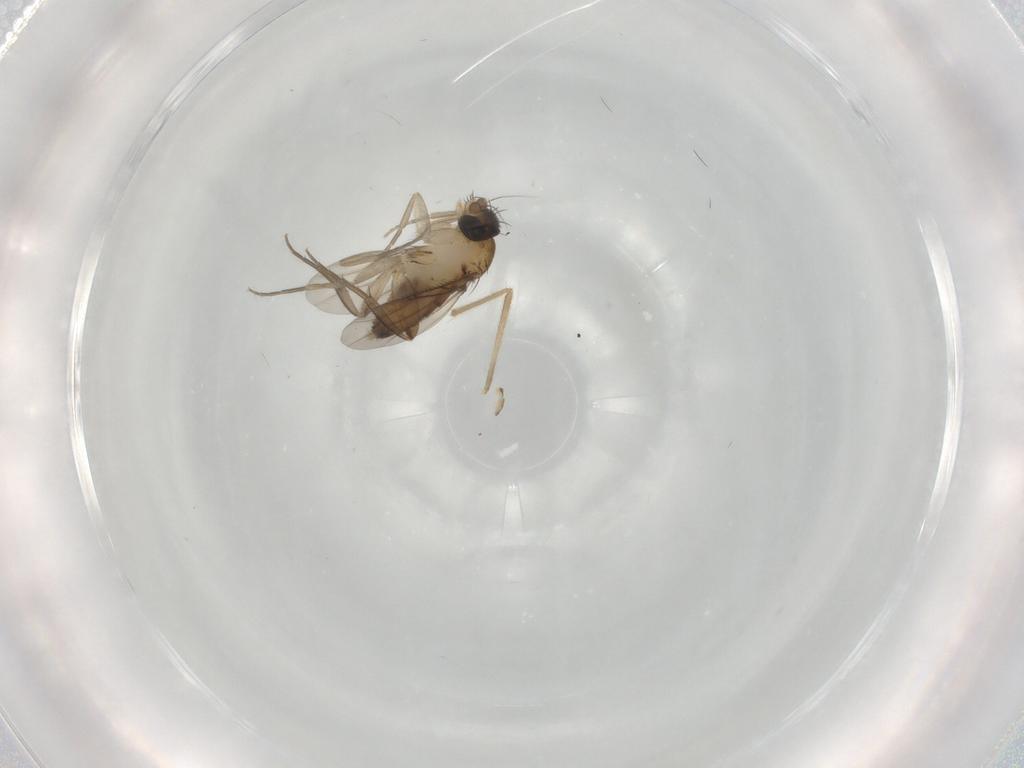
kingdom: Animalia
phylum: Arthropoda
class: Insecta
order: Diptera
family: Phoridae
